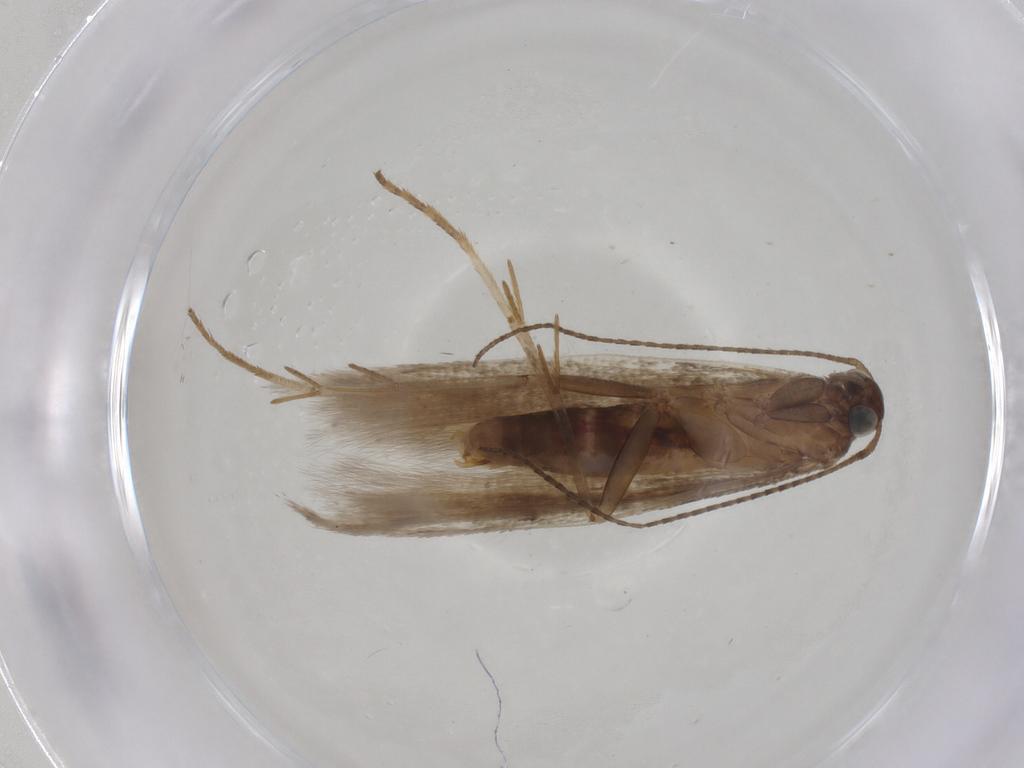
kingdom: Animalia
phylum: Arthropoda
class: Insecta
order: Lepidoptera
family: Gelechiidae
